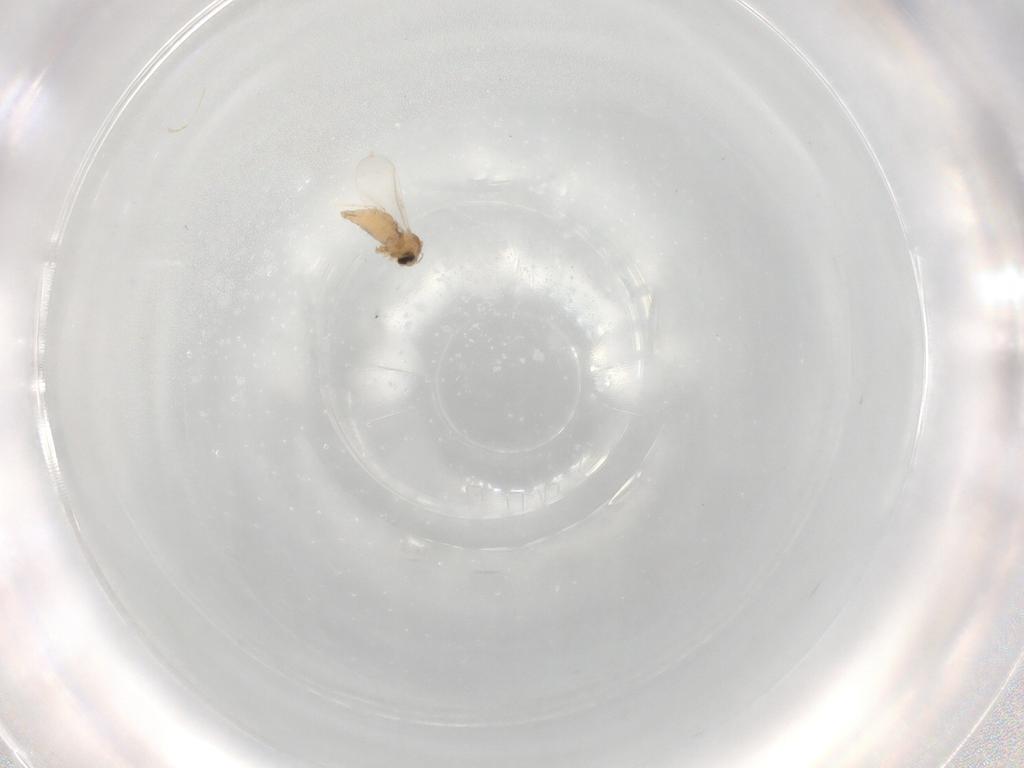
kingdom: Animalia
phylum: Arthropoda
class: Insecta
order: Diptera
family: Cecidomyiidae
